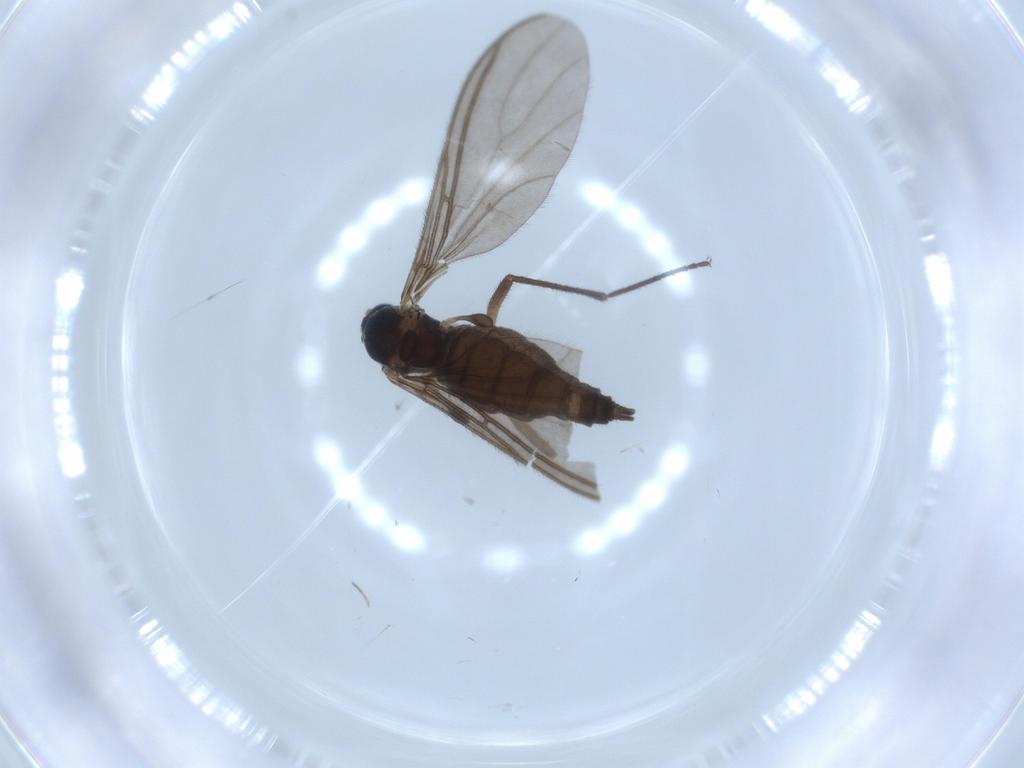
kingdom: Animalia
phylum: Arthropoda
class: Insecta
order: Diptera
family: Sciaridae
